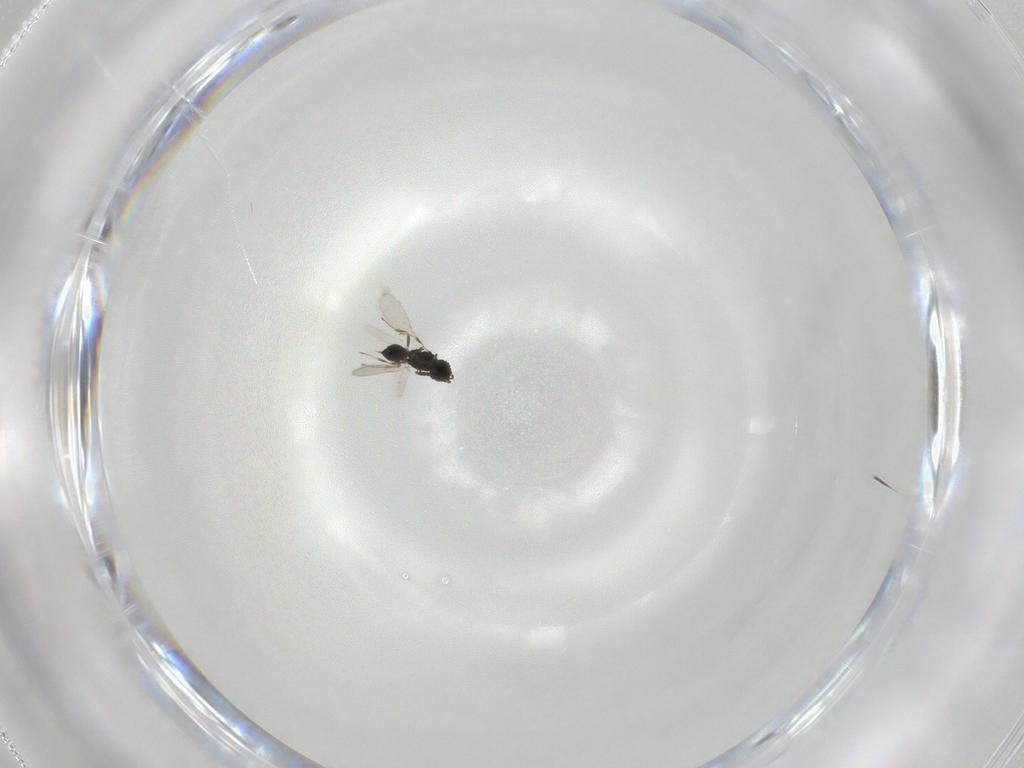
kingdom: Animalia
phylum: Arthropoda
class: Insecta
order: Hymenoptera
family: Scelionidae
